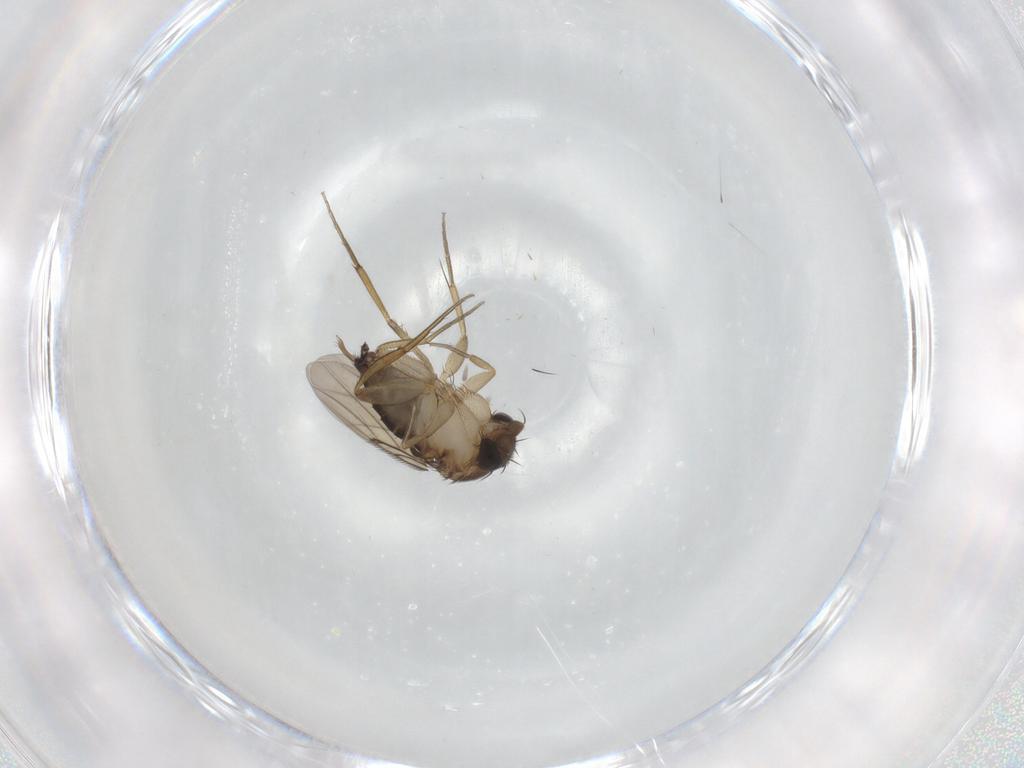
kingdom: Animalia
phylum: Arthropoda
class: Insecta
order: Diptera
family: Phoridae
